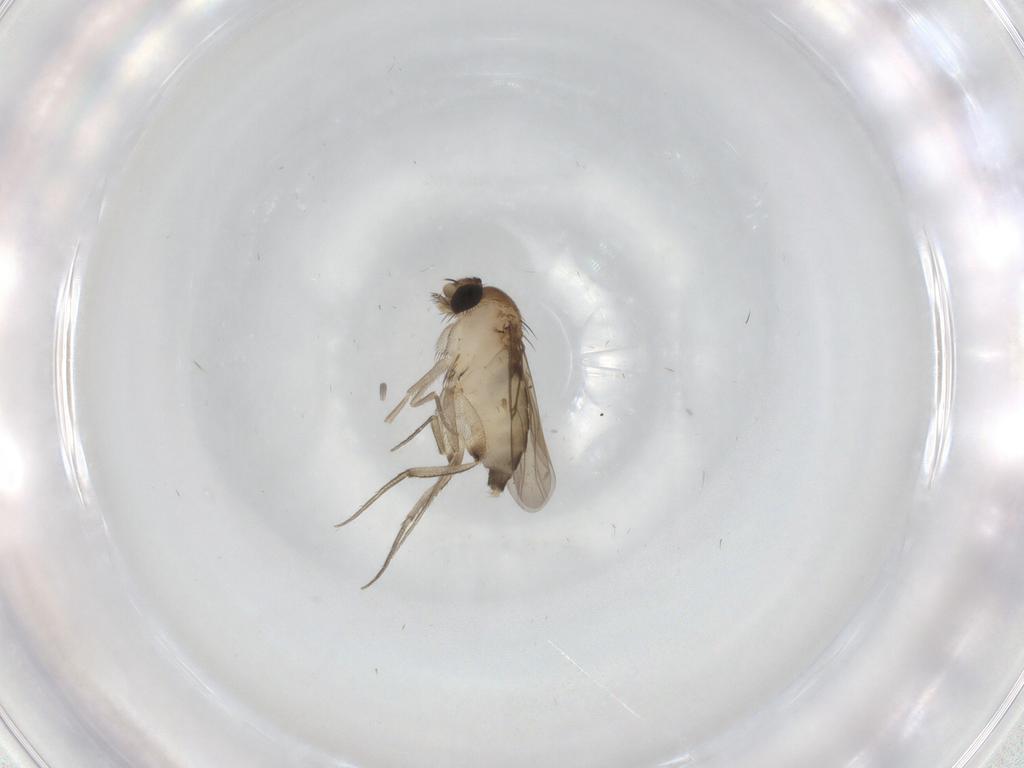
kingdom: Animalia
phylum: Arthropoda
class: Insecta
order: Diptera
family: Phoridae
